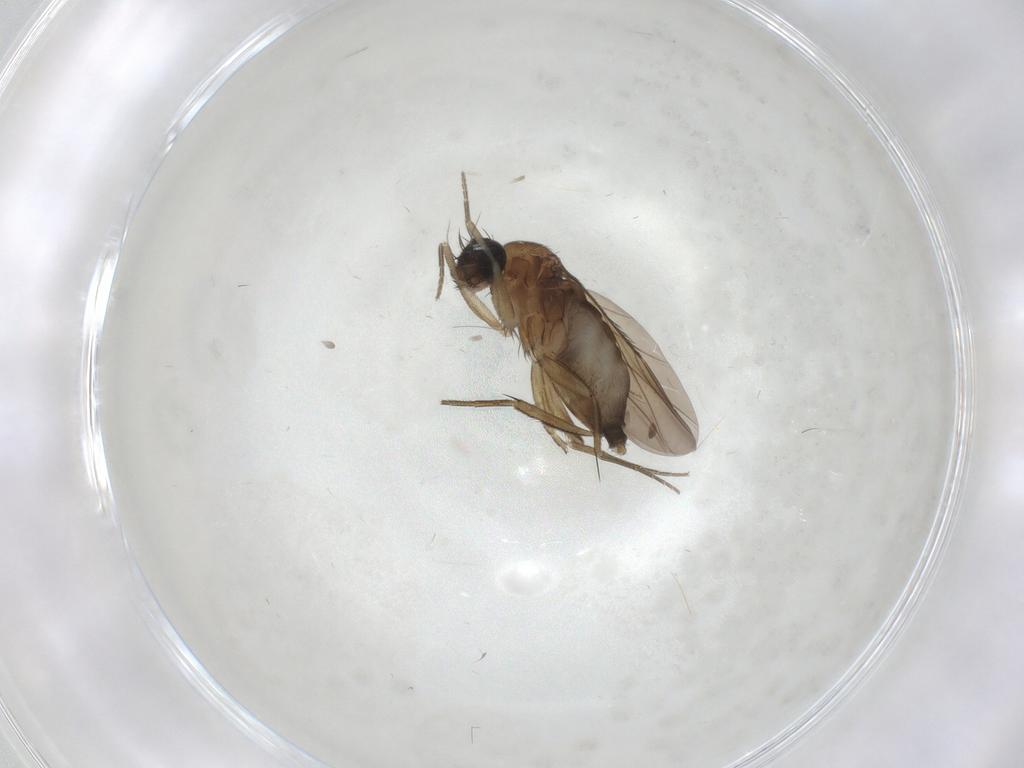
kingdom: Animalia
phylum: Arthropoda
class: Insecta
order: Diptera
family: Phoridae
